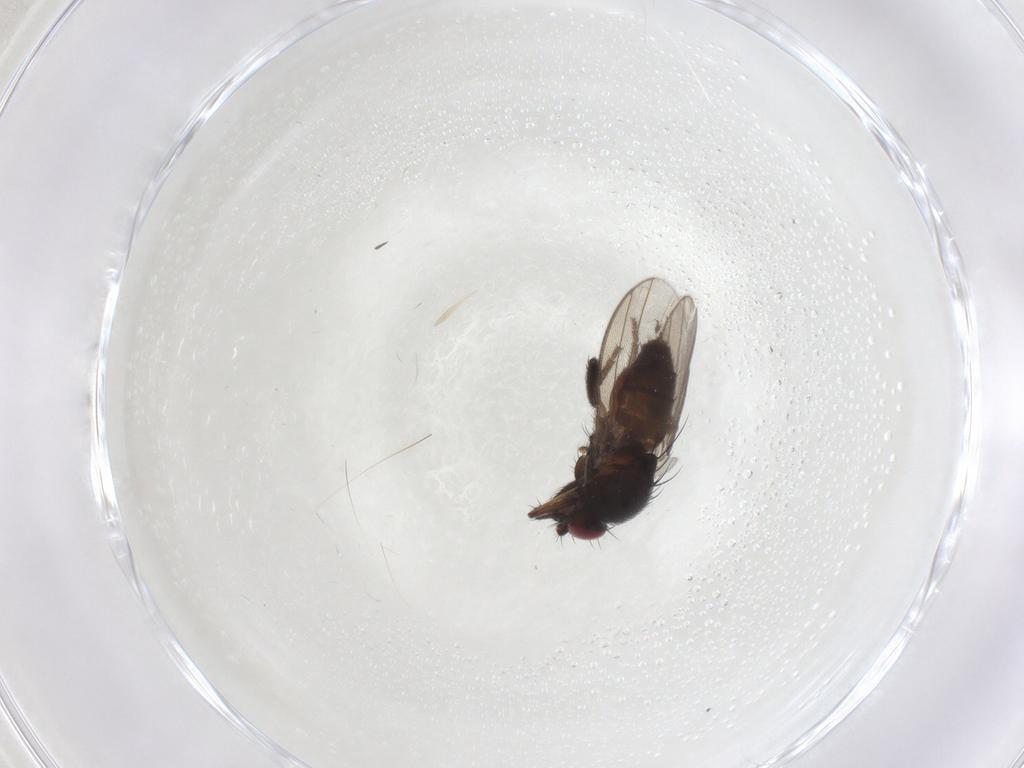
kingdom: Animalia
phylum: Arthropoda
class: Insecta
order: Diptera
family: Milichiidae
